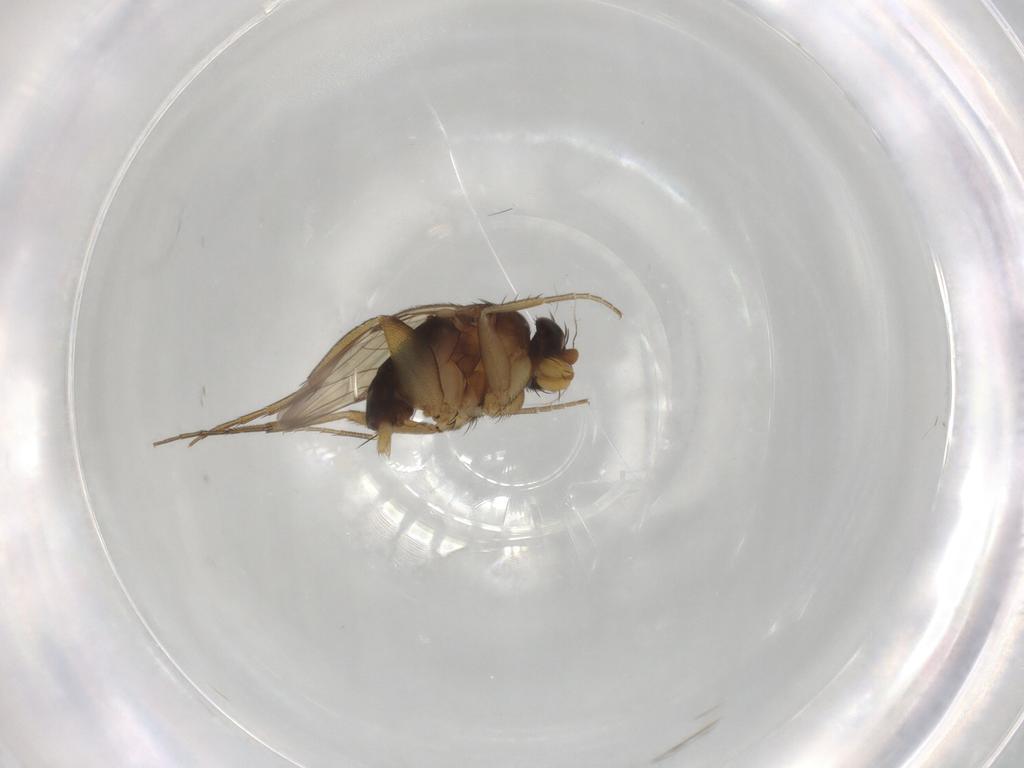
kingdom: Animalia
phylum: Arthropoda
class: Insecta
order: Diptera
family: Phoridae
